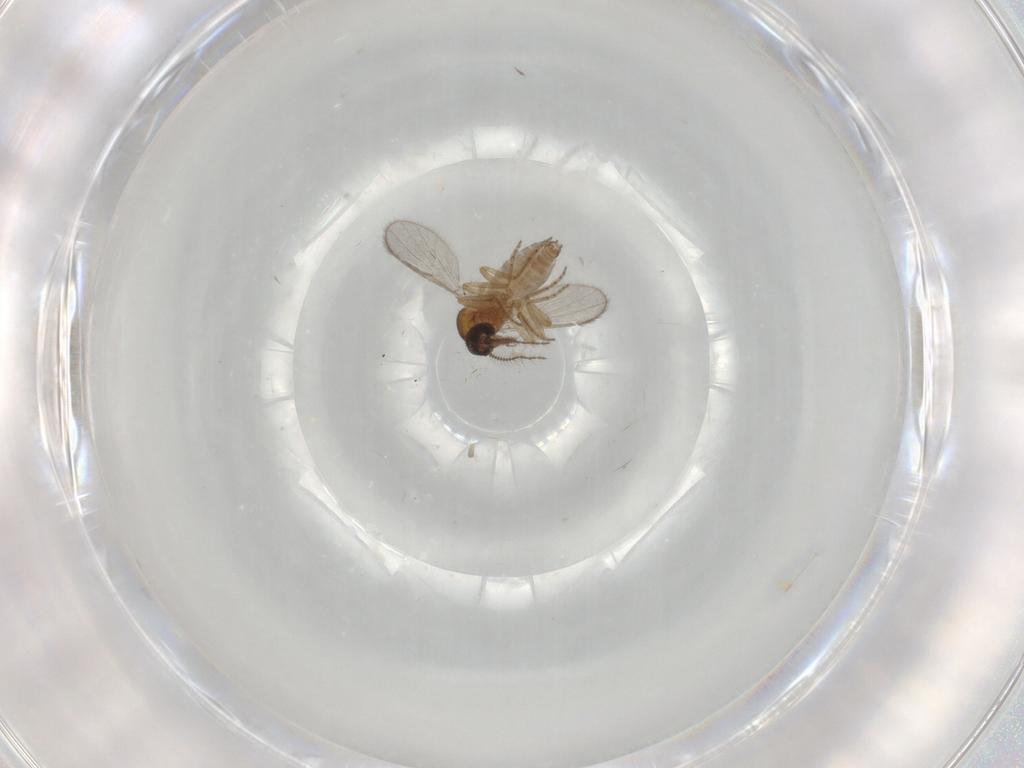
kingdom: Animalia
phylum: Arthropoda
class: Insecta
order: Diptera
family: Ceratopogonidae
